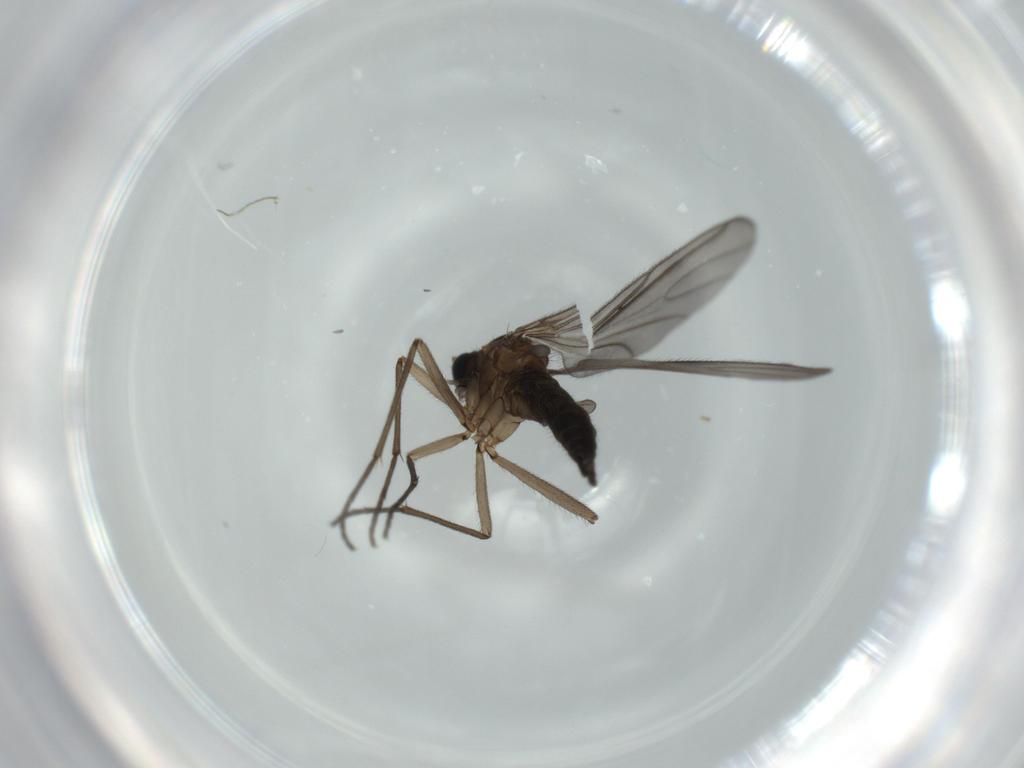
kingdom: Animalia
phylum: Arthropoda
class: Insecta
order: Diptera
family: Sciaridae
